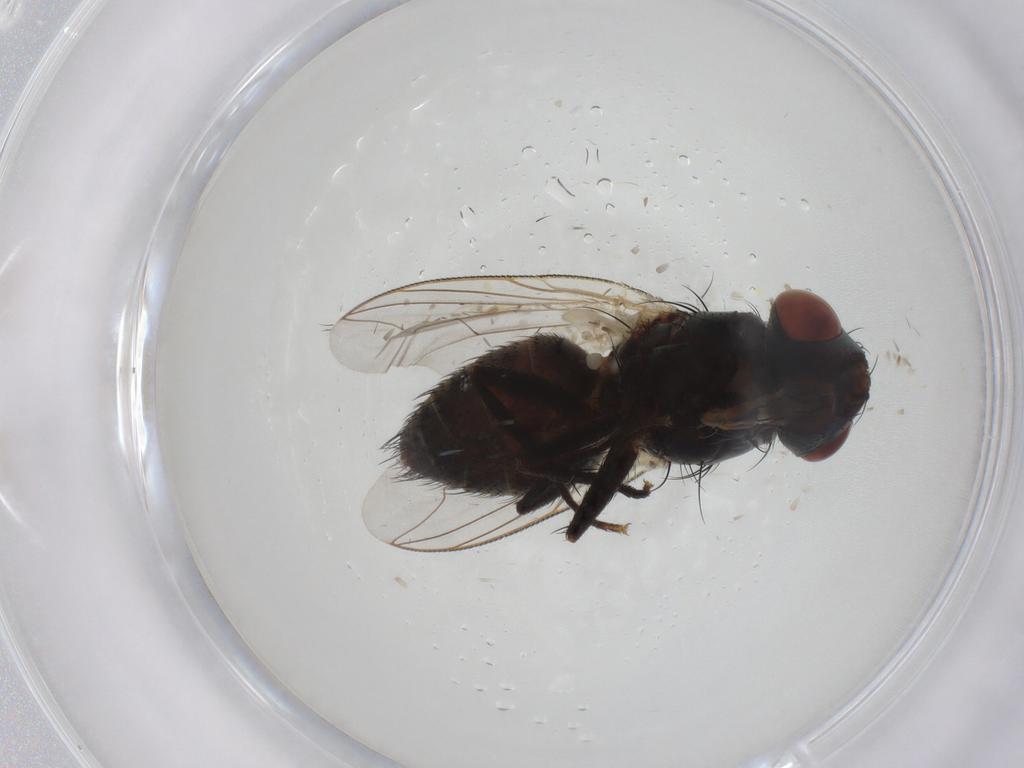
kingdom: Animalia
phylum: Arthropoda
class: Insecta
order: Diptera
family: Sarcophagidae
